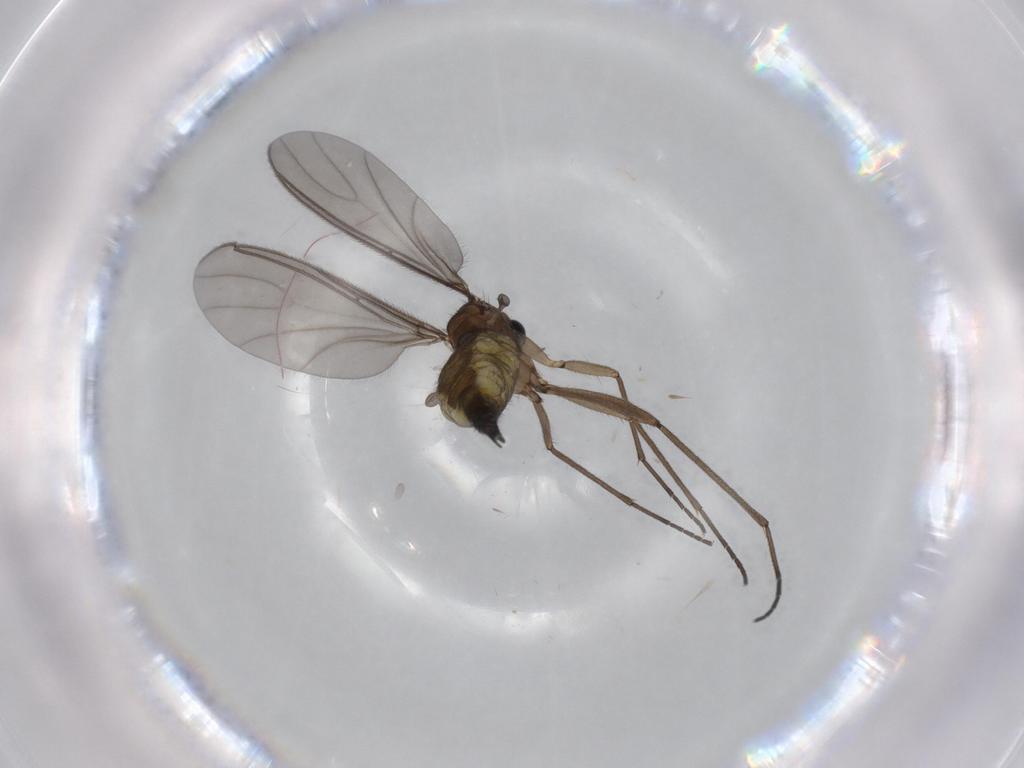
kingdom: Animalia
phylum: Arthropoda
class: Insecta
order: Diptera
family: Sciaridae
